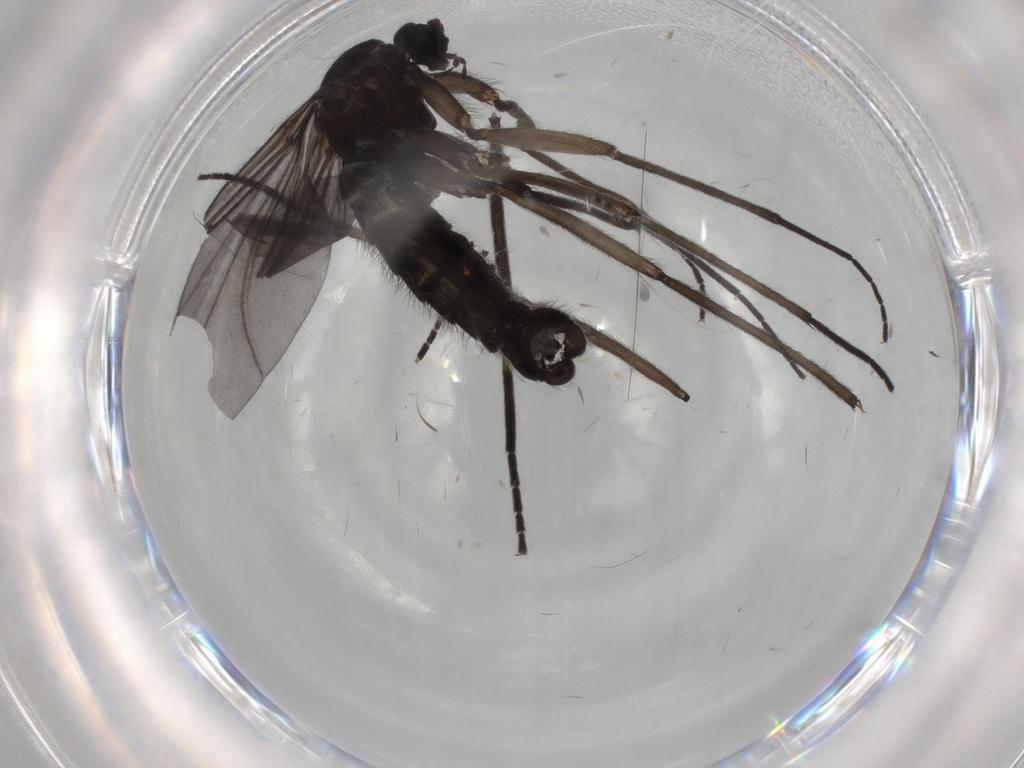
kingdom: Animalia
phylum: Arthropoda
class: Insecta
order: Diptera
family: Sciaridae
